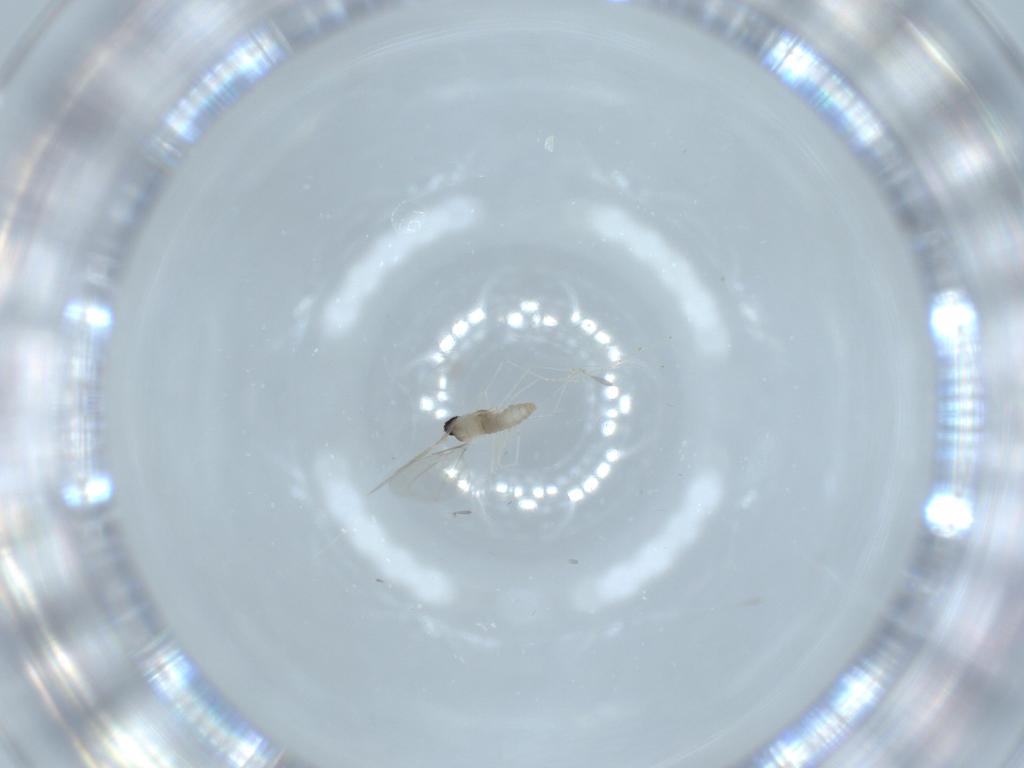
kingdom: Animalia
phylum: Arthropoda
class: Insecta
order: Diptera
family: Cecidomyiidae
